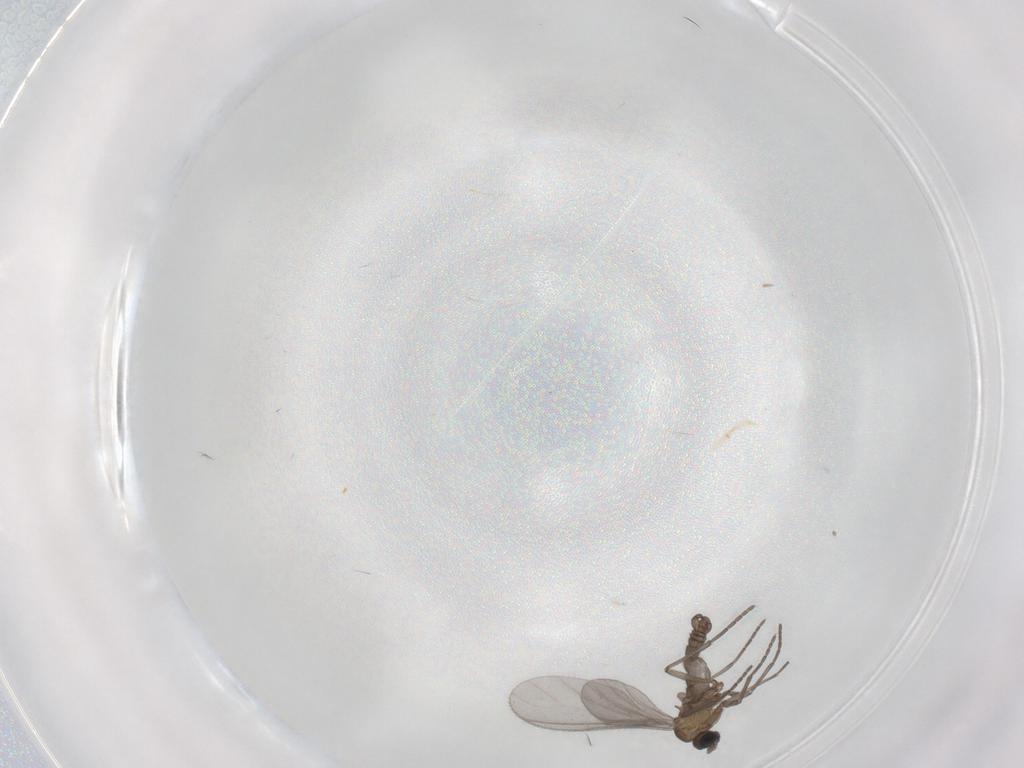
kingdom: Animalia
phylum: Arthropoda
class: Insecta
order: Diptera
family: Sciaridae
